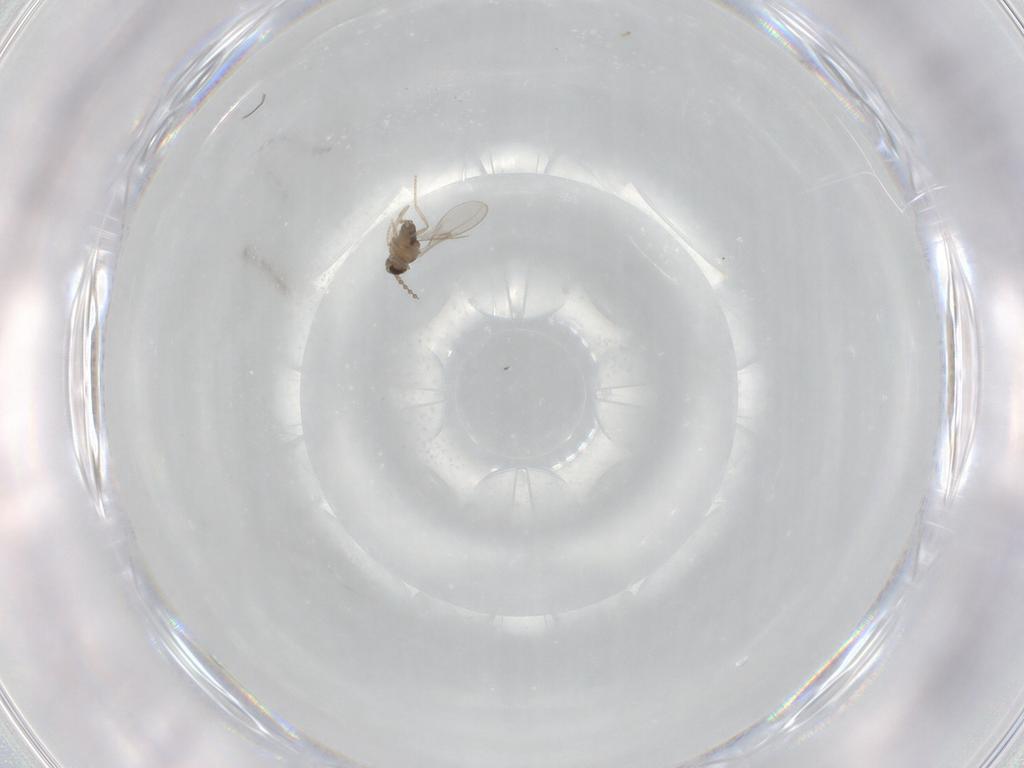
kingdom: Animalia
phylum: Arthropoda
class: Insecta
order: Diptera
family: Cecidomyiidae
